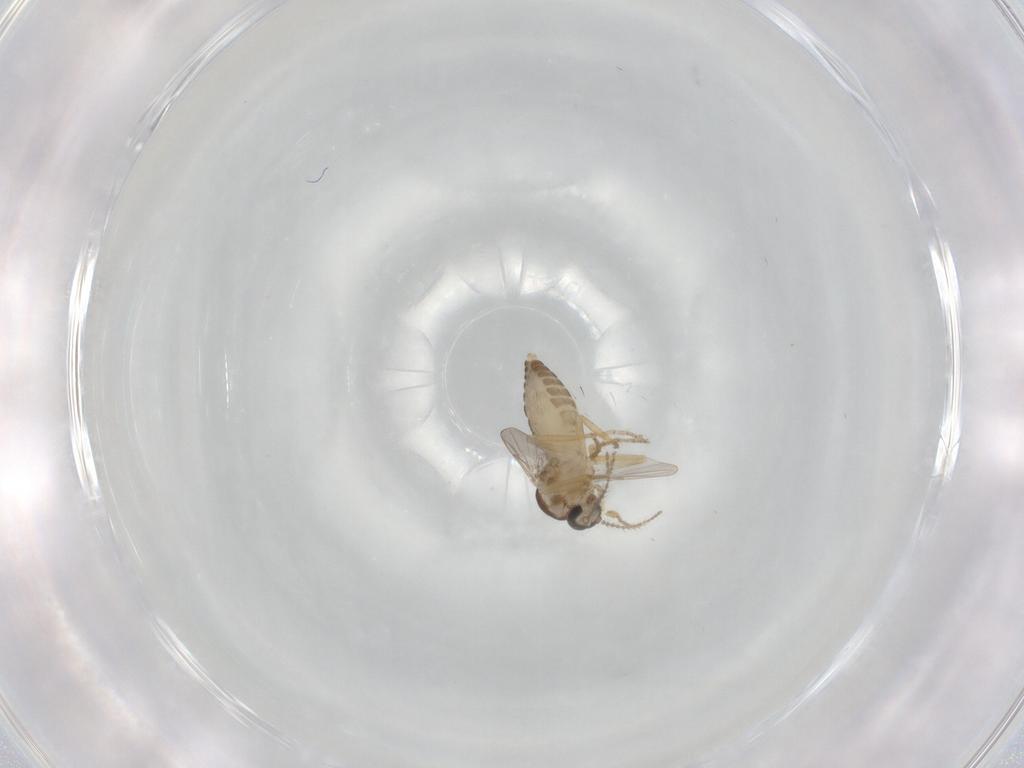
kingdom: Animalia
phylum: Arthropoda
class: Insecta
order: Diptera
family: Ceratopogonidae
